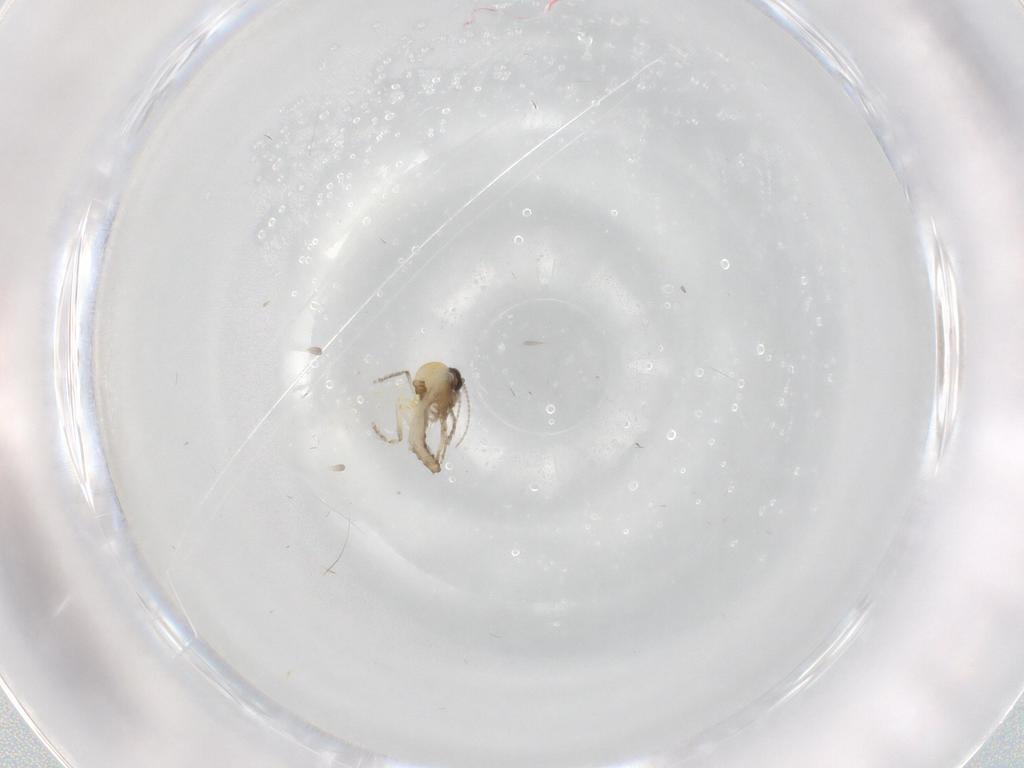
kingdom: Animalia
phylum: Arthropoda
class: Insecta
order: Diptera
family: Ceratopogonidae
